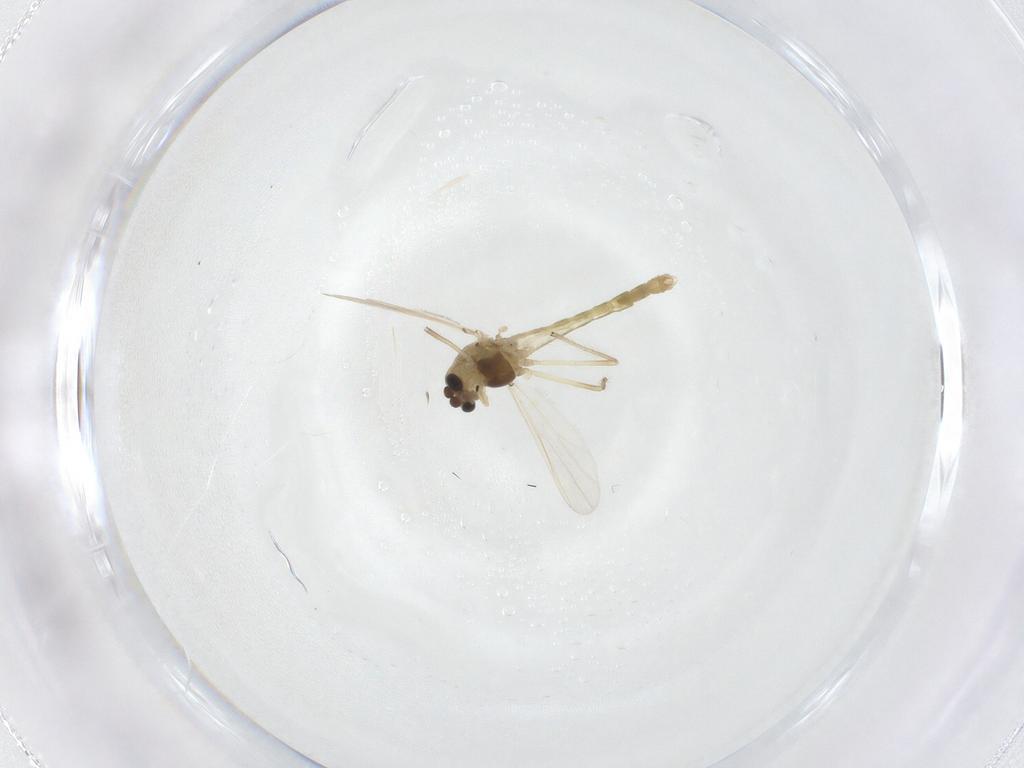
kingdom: Animalia
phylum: Arthropoda
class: Insecta
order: Diptera
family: Chironomidae
